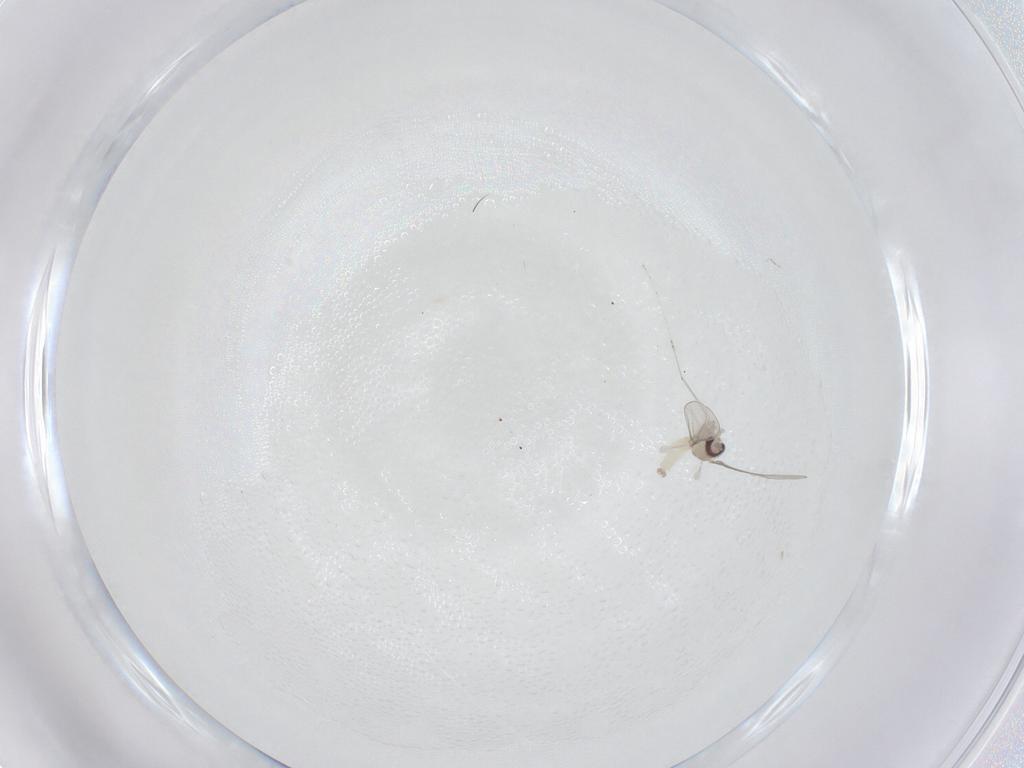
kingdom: Animalia
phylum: Arthropoda
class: Insecta
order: Diptera
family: Cecidomyiidae
